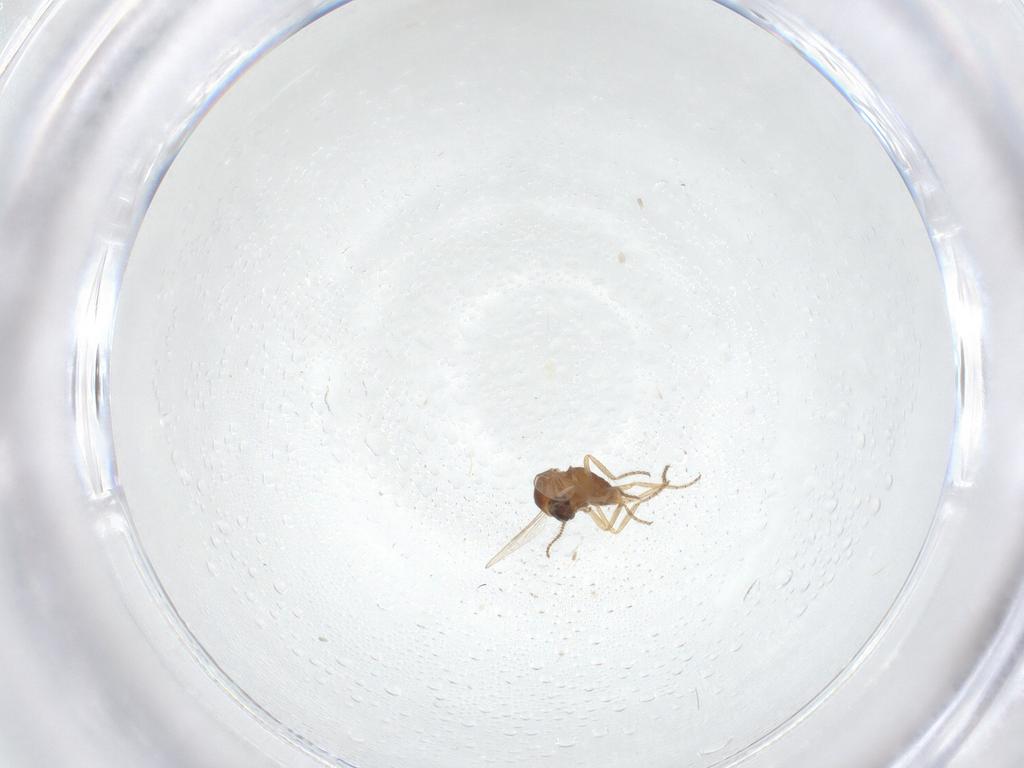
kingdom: Animalia
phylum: Arthropoda
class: Insecta
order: Diptera
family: Ceratopogonidae
